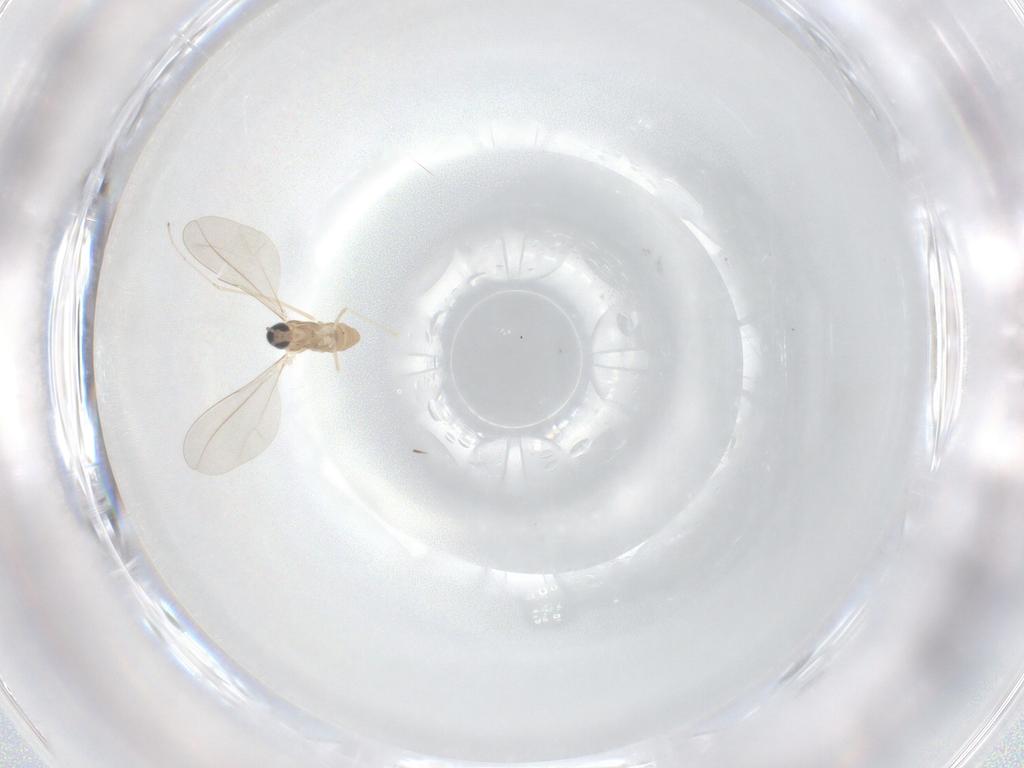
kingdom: Animalia
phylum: Arthropoda
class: Insecta
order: Diptera
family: Cecidomyiidae
